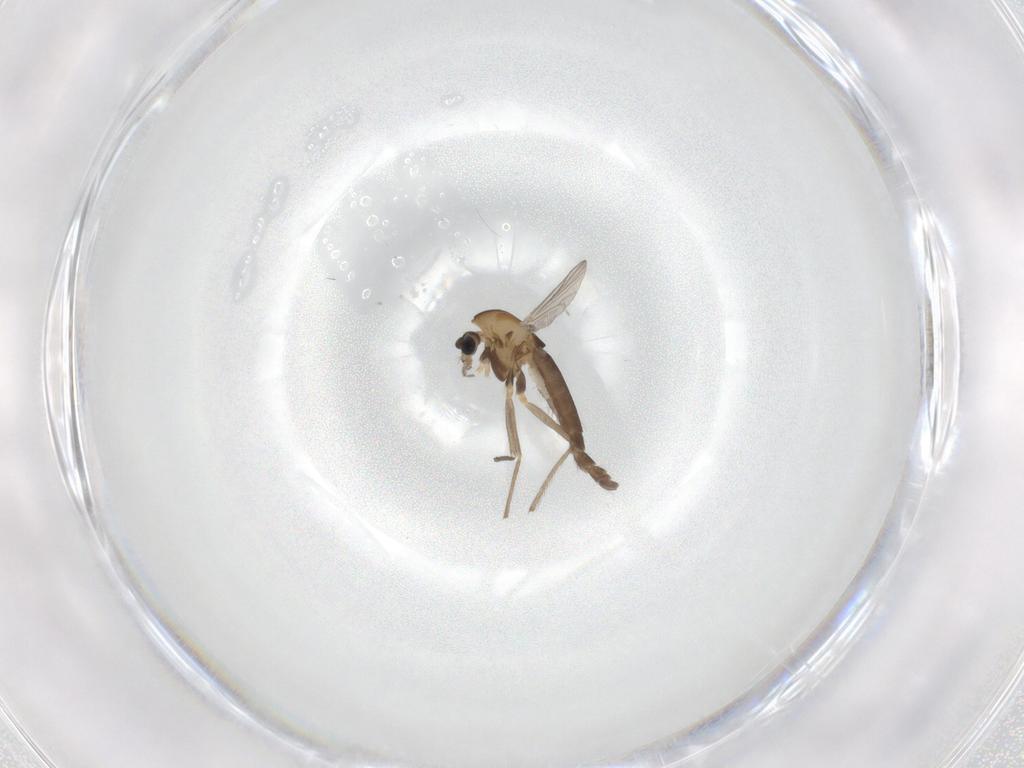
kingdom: Animalia
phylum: Arthropoda
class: Insecta
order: Diptera
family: Chironomidae
